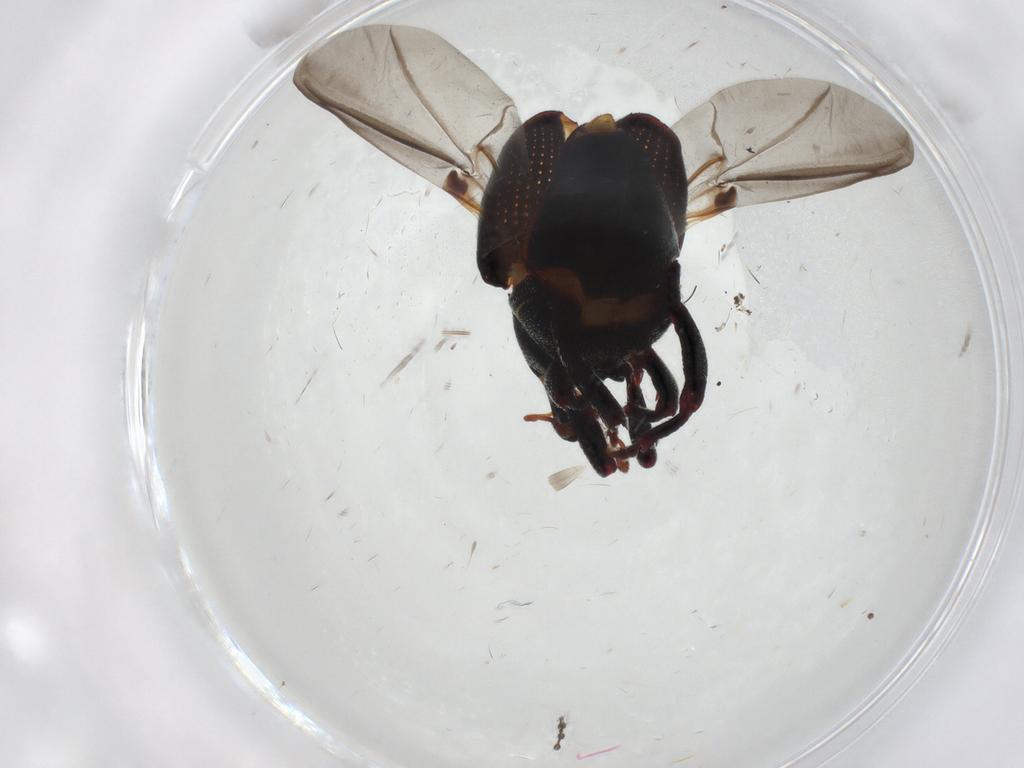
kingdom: Animalia
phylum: Arthropoda
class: Insecta
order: Coleoptera
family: Curculionidae
